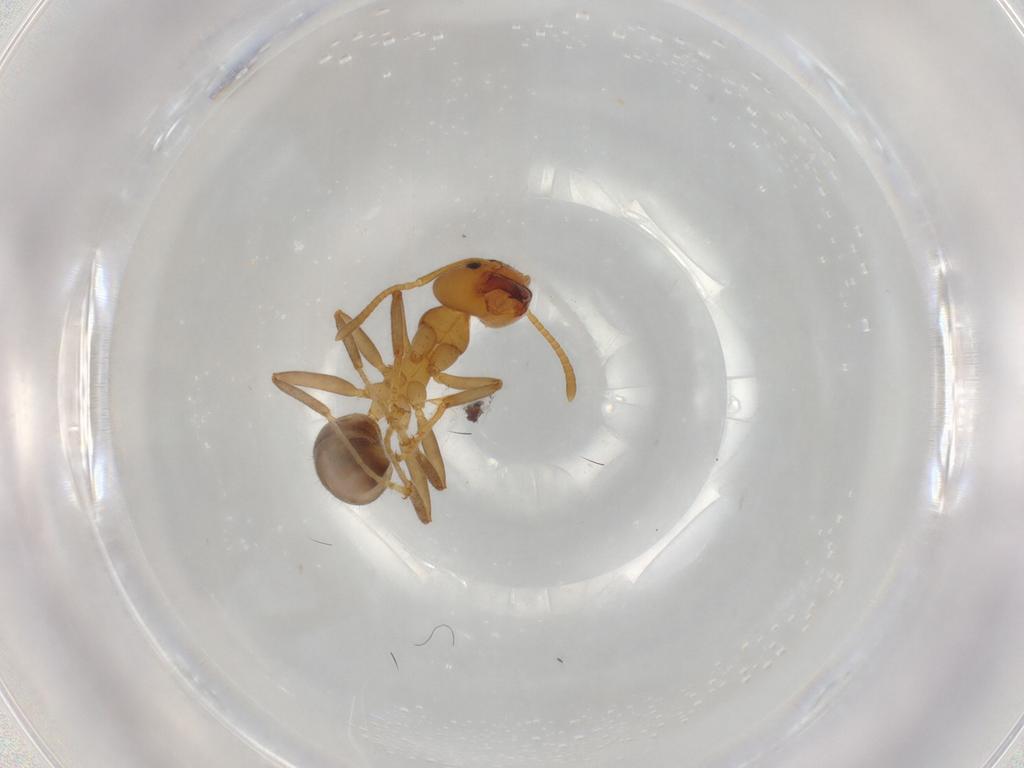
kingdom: Animalia
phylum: Arthropoda
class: Insecta
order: Hymenoptera
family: Formicidae
